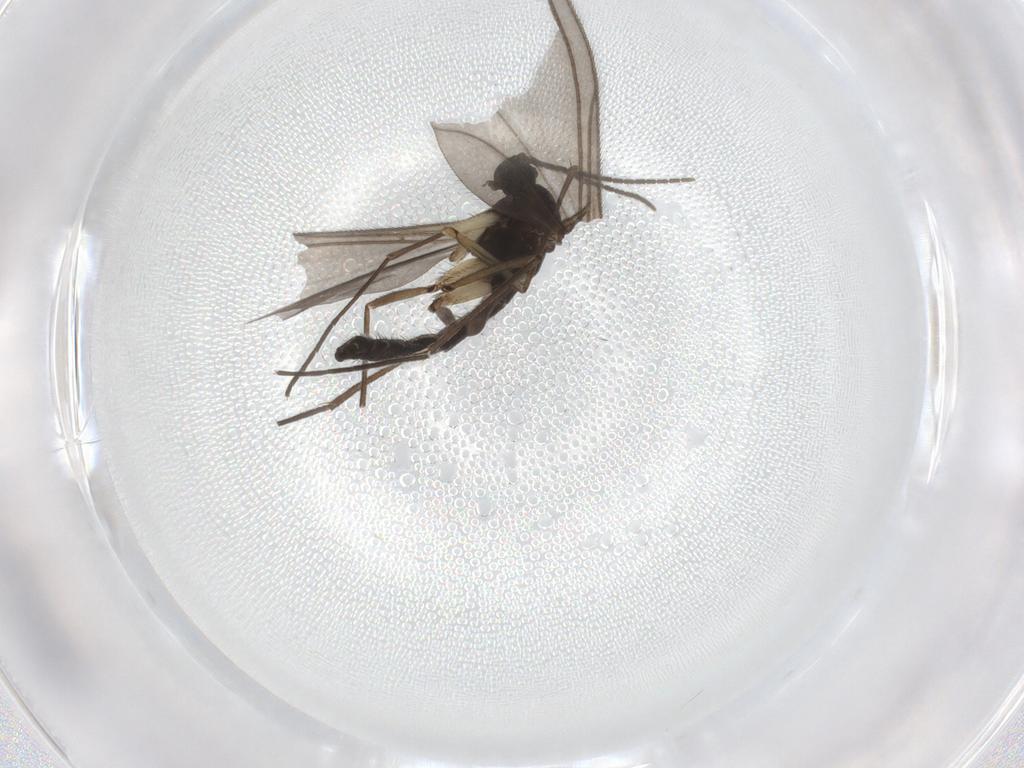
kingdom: Animalia
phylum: Arthropoda
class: Insecta
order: Diptera
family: Sciaridae
